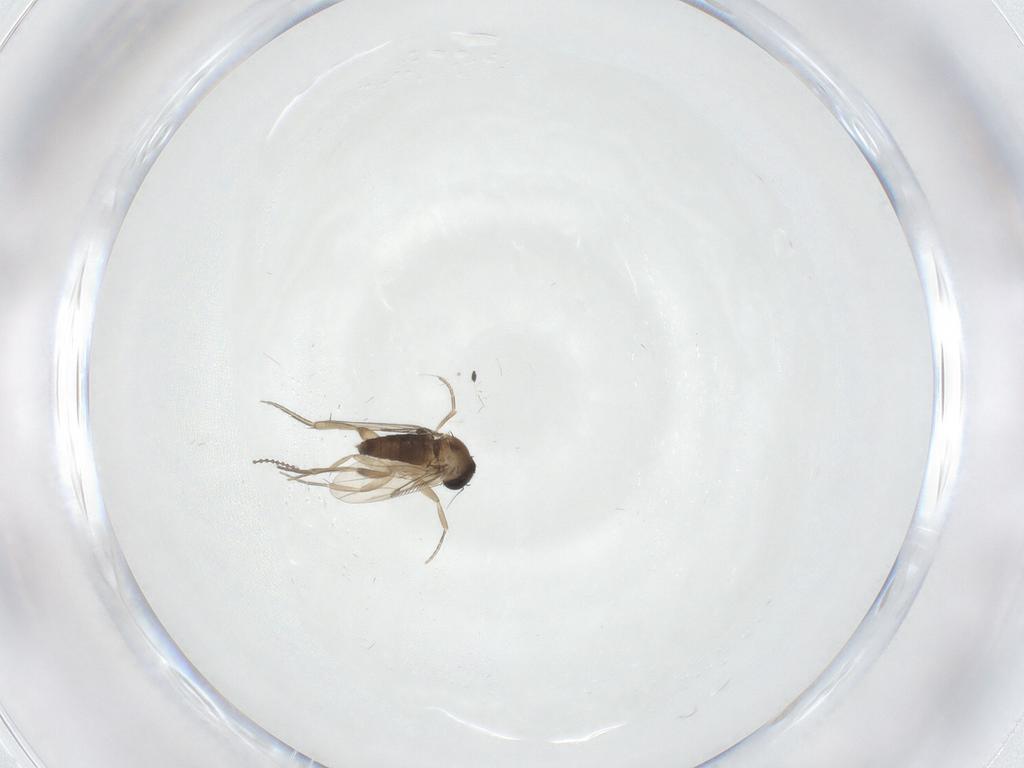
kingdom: Animalia
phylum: Arthropoda
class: Insecta
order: Diptera
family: Phoridae
